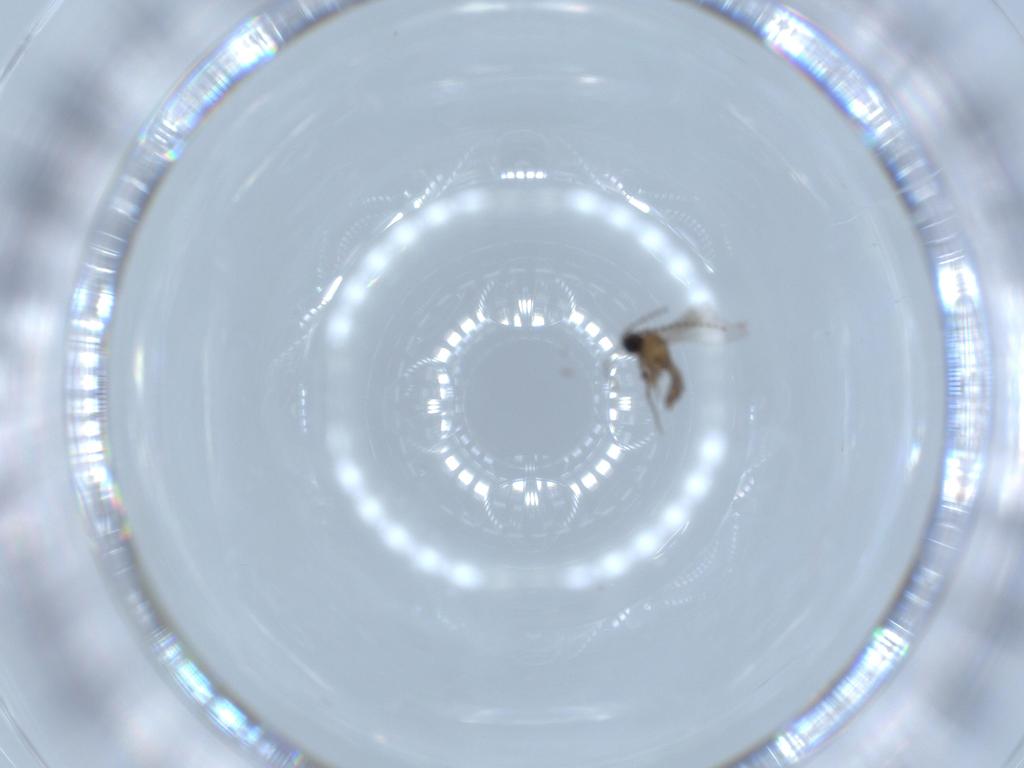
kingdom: Animalia
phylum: Arthropoda
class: Insecta
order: Diptera
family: Sciaridae
